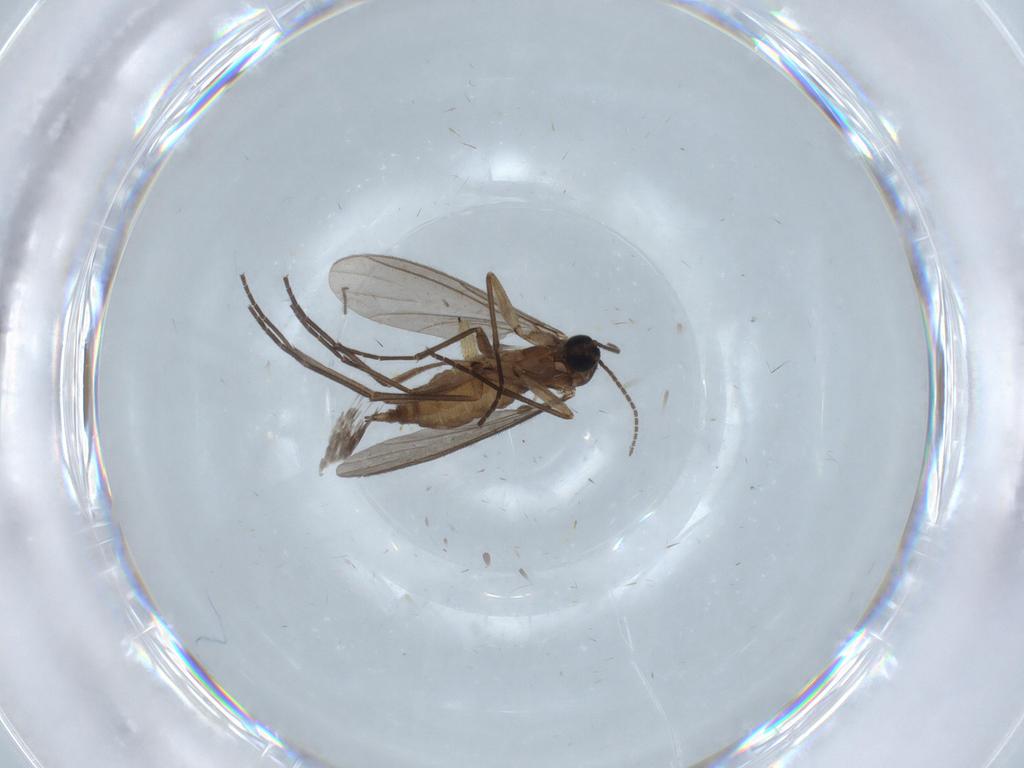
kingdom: Animalia
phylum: Arthropoda
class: Insecta
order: Diptera
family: Sciaridae
